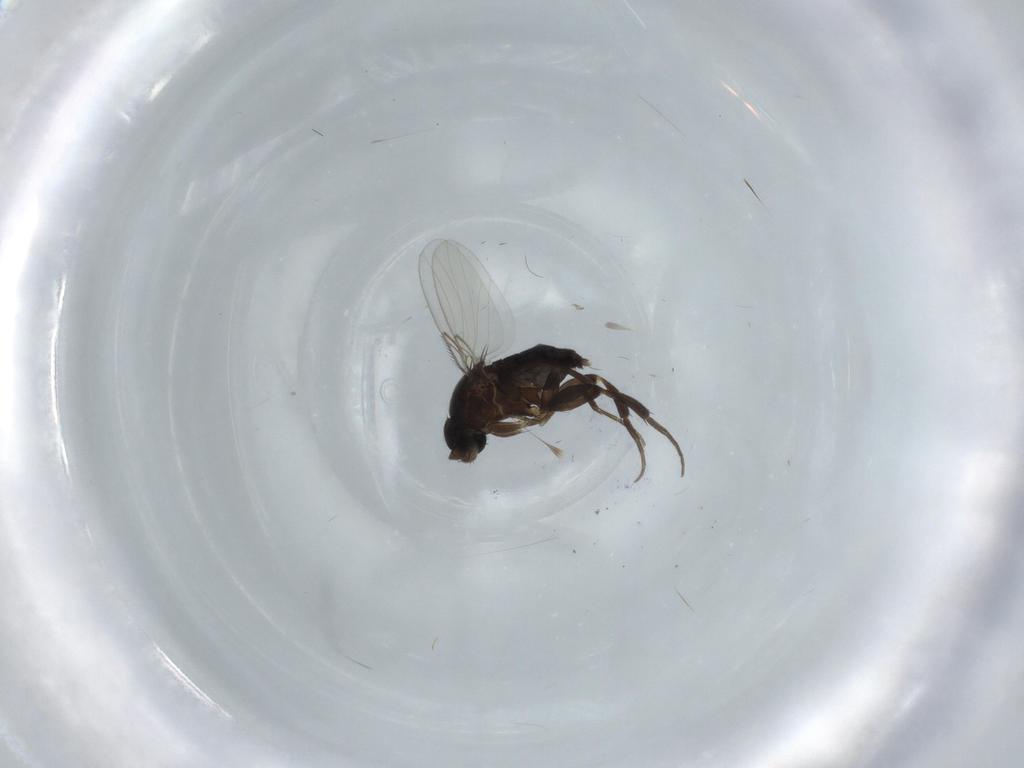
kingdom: Animalia
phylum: Arthropoda
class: Insecta
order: Diptera
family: Phoridae
